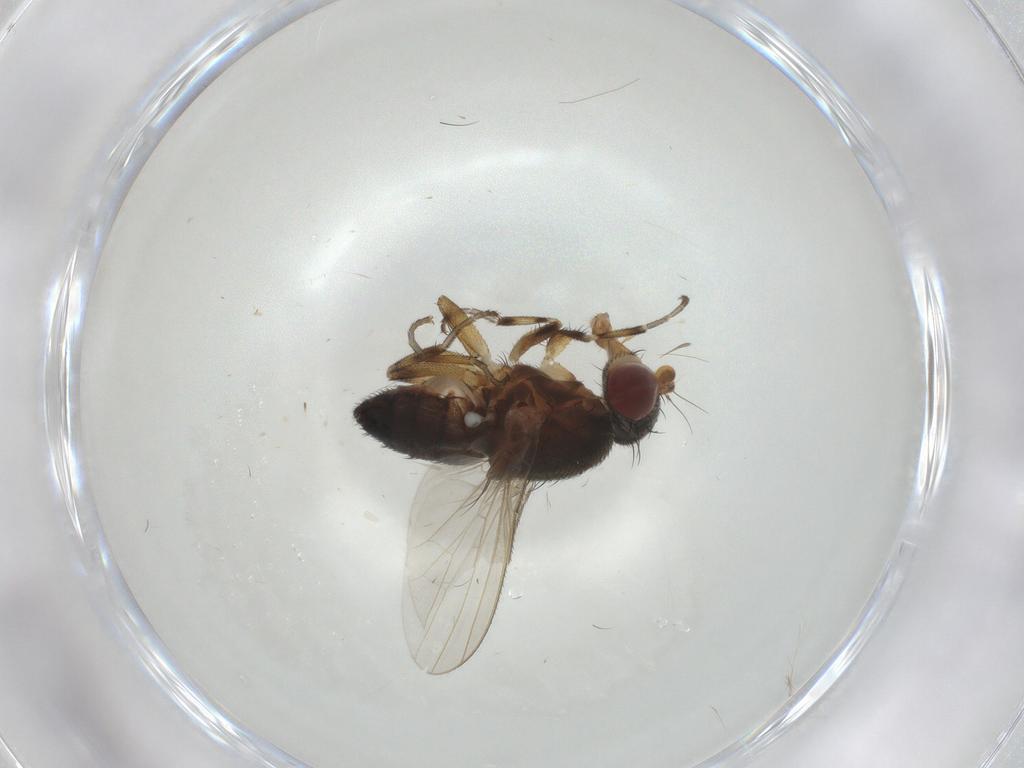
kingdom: Animalia
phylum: Arthropoda
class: Insecta
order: Diptera
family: Heleomyzidae
